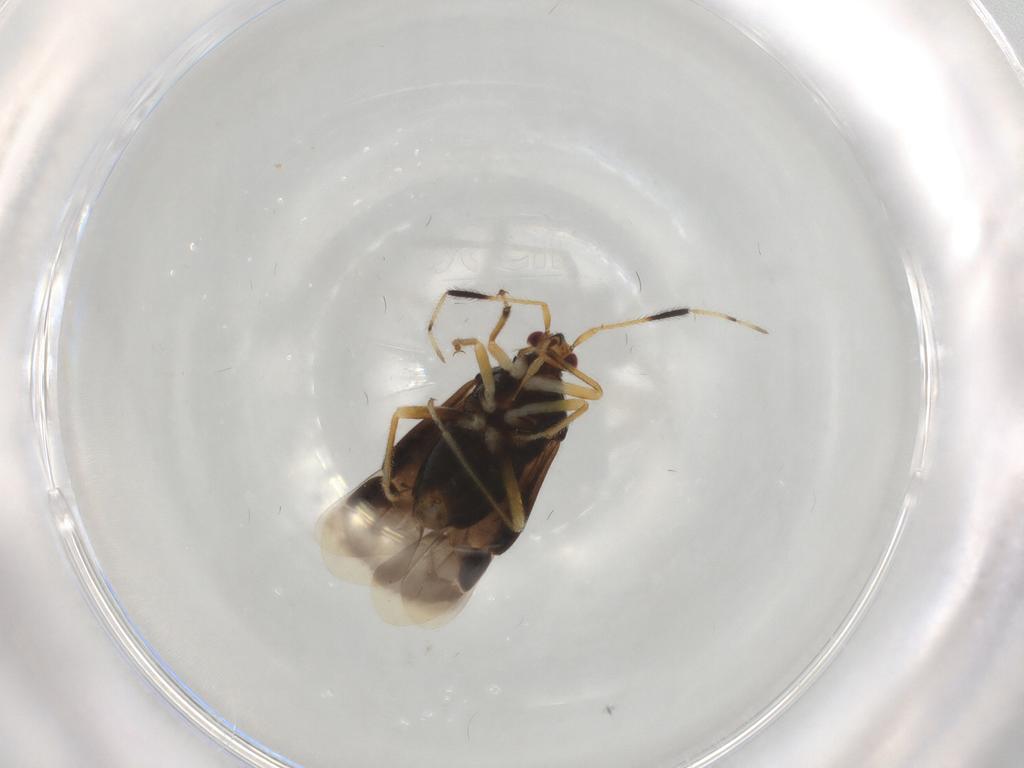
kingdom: Animalia
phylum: Arthropoda
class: Insecta
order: Hemiptera
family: Miridae
